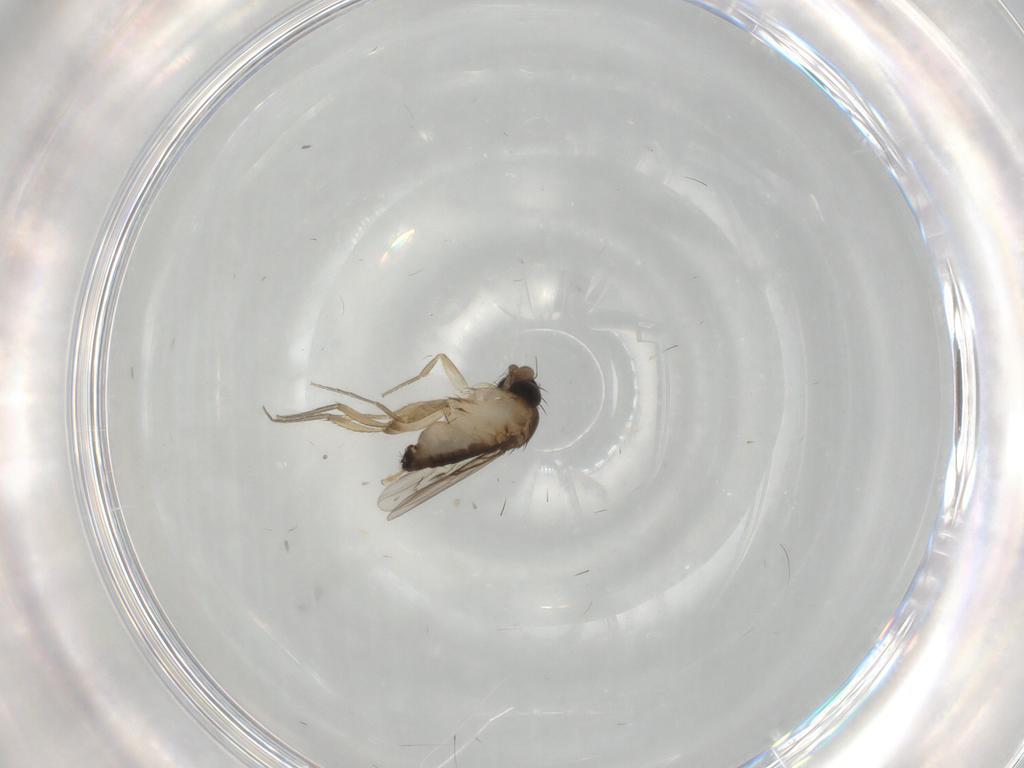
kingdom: Animalia
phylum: Arthropoda
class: Insecta
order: Diptera
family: Phoridae
